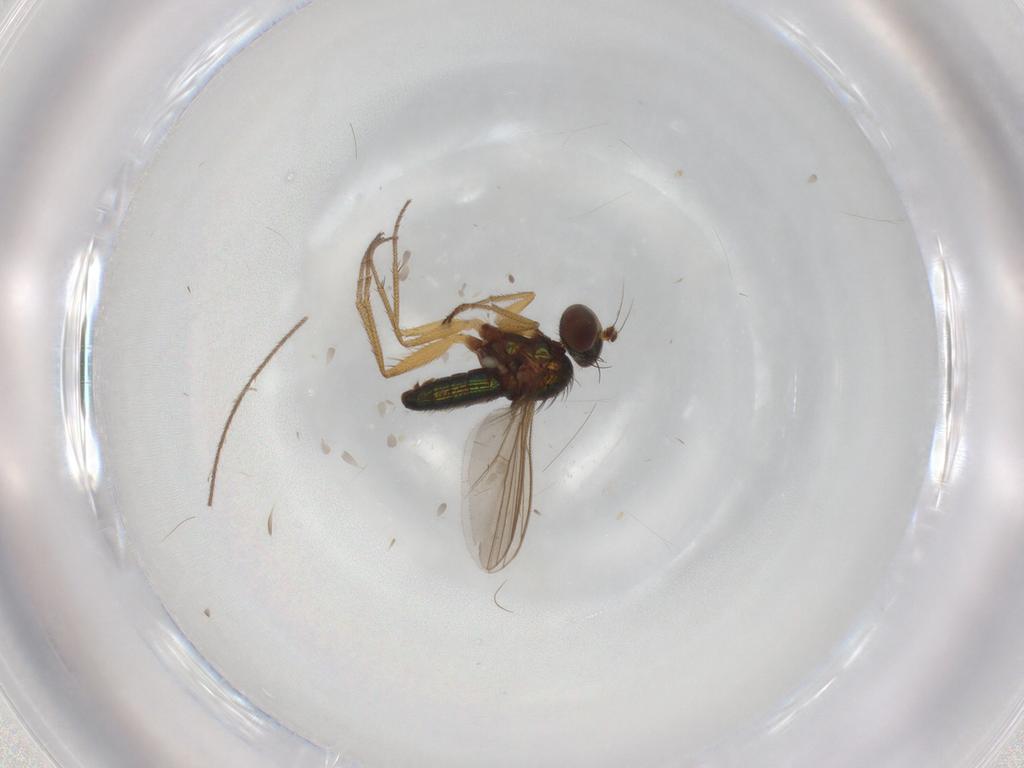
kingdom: Animalia
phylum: Arthropoda
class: Insecta
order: Diptera
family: Ceratopogonidae
